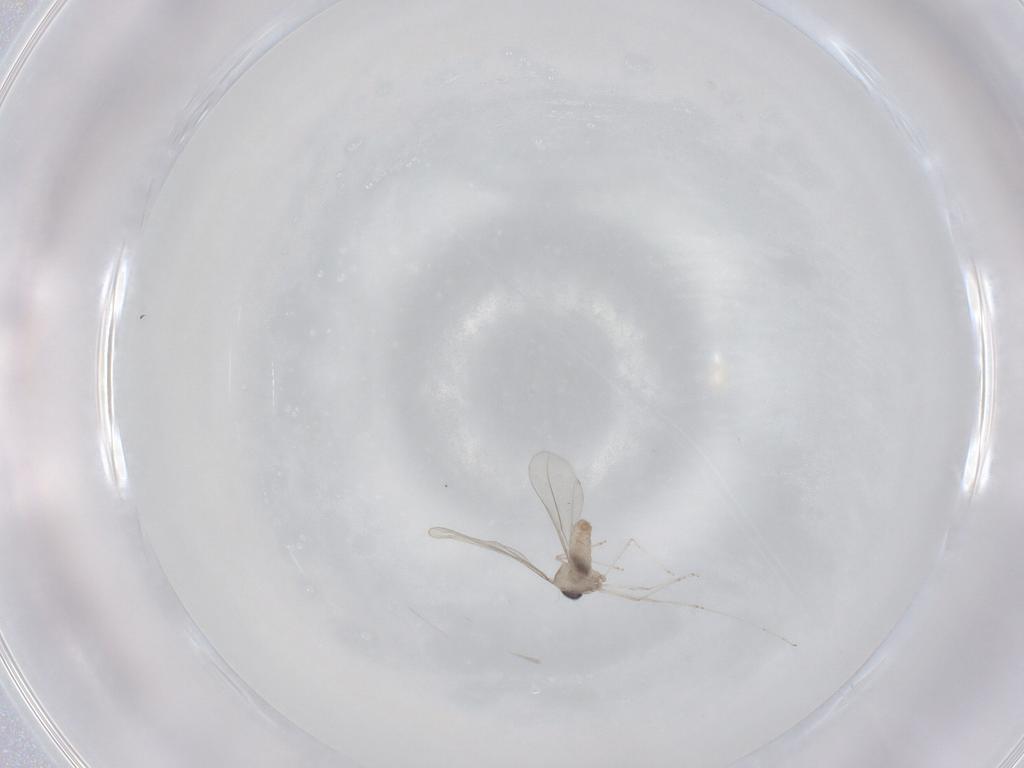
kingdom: Animalia
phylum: Arthropoda
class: Insecta
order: Diptera
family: Cecidomyiidae
